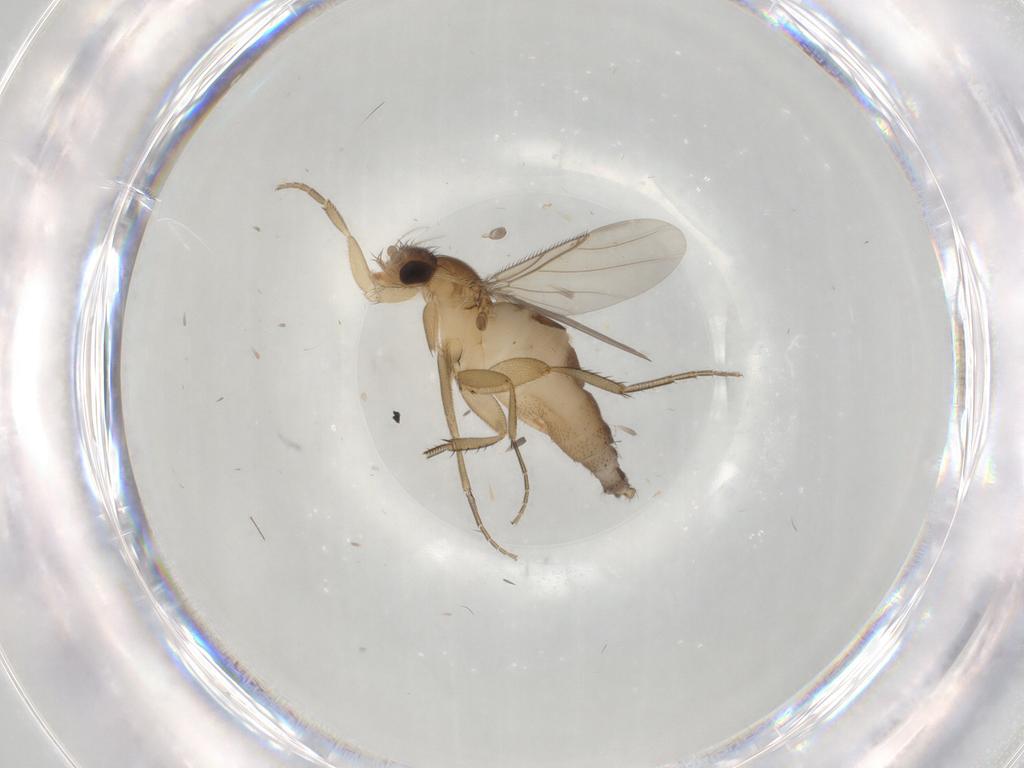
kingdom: Animalia
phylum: Arthropoda
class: Insecta
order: Diptera
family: Phoridae
